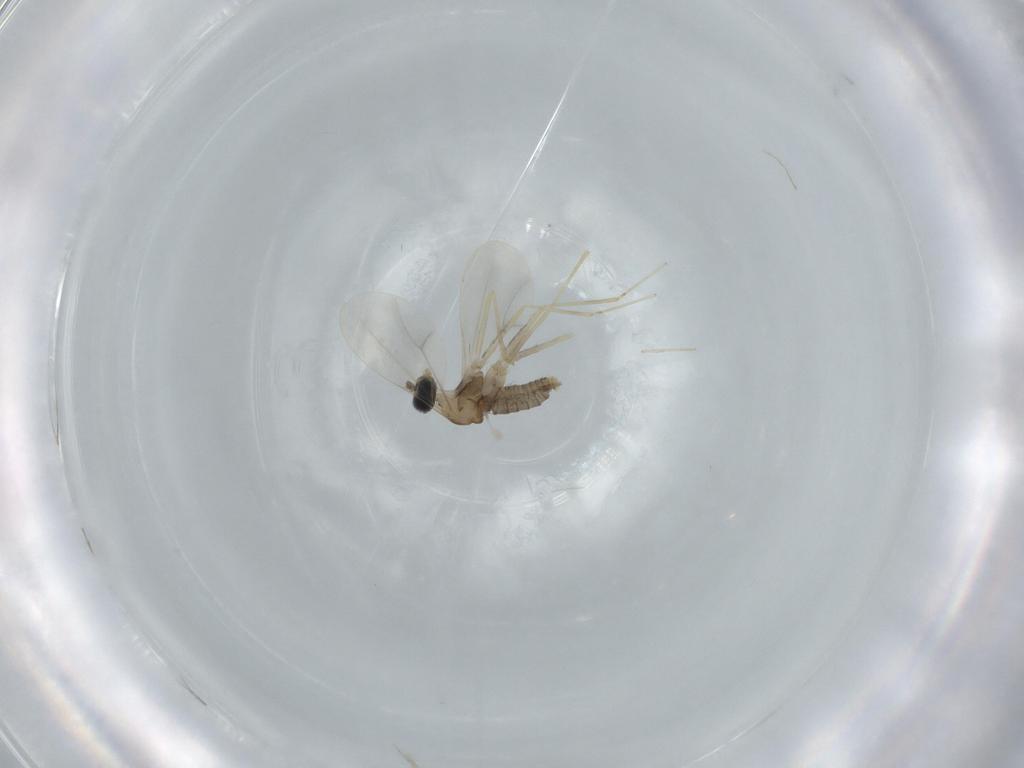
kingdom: Animalia
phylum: Arthropoda
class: Insecta
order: Diptera
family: Cecidomyiidae
